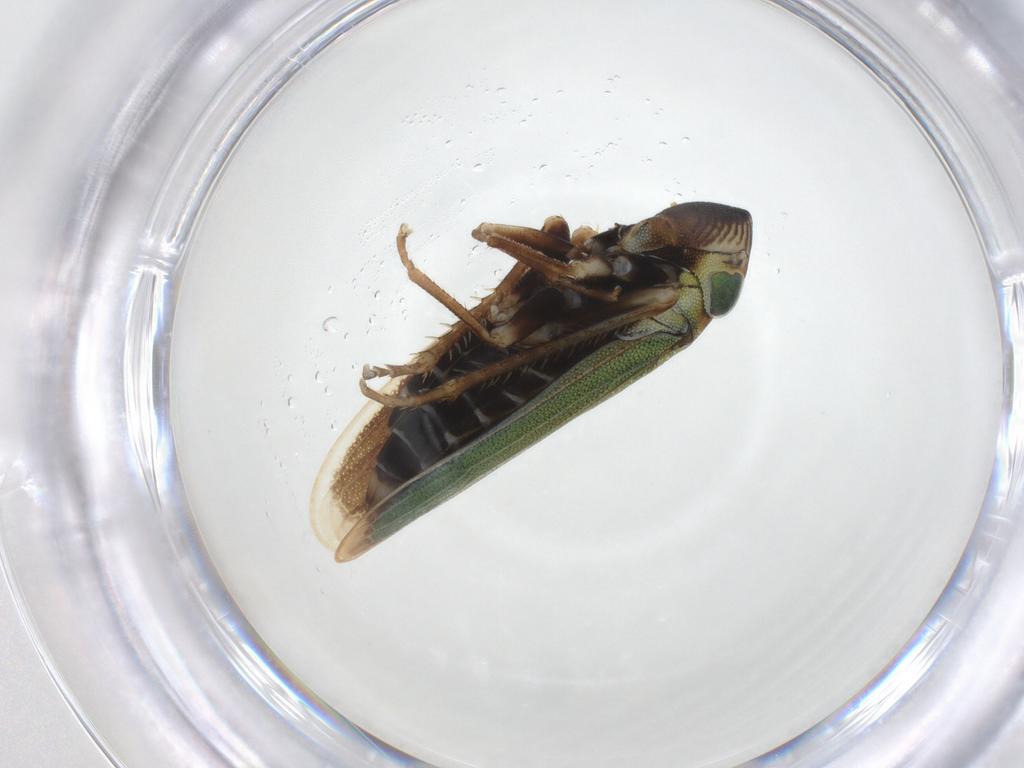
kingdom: Animalia
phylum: Arthropoda
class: Insecta
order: Hemiptera
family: Cicadellidae
